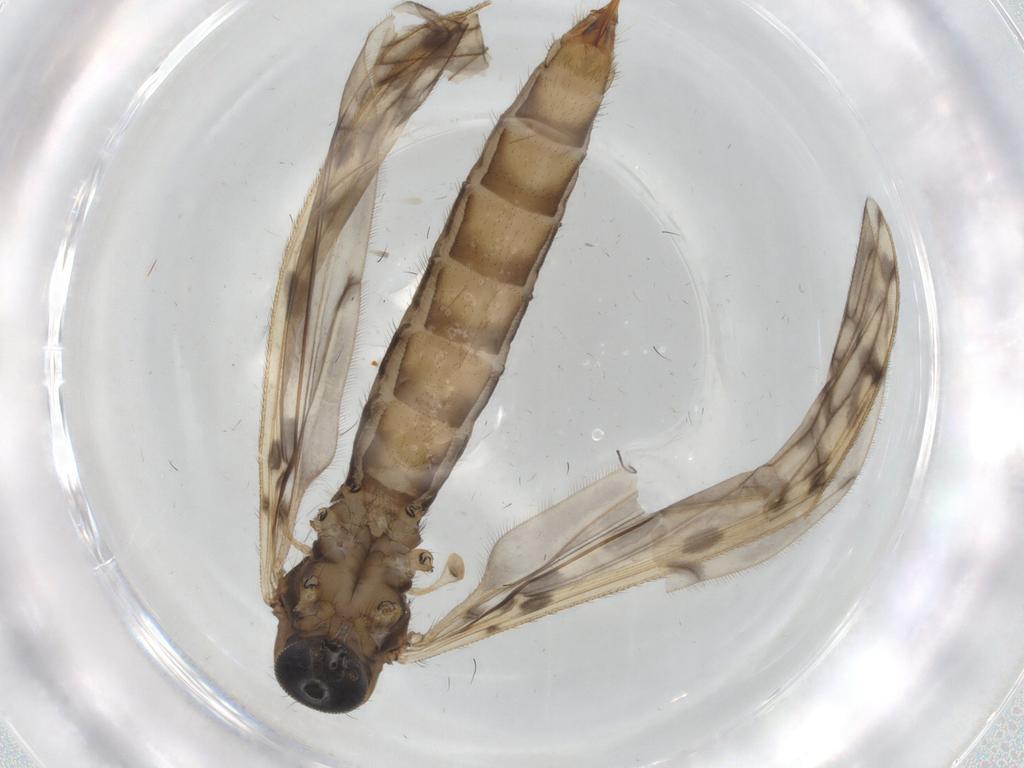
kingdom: Animalia
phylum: Arthropoda
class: Insecta
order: Diptera
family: Limoniidae
